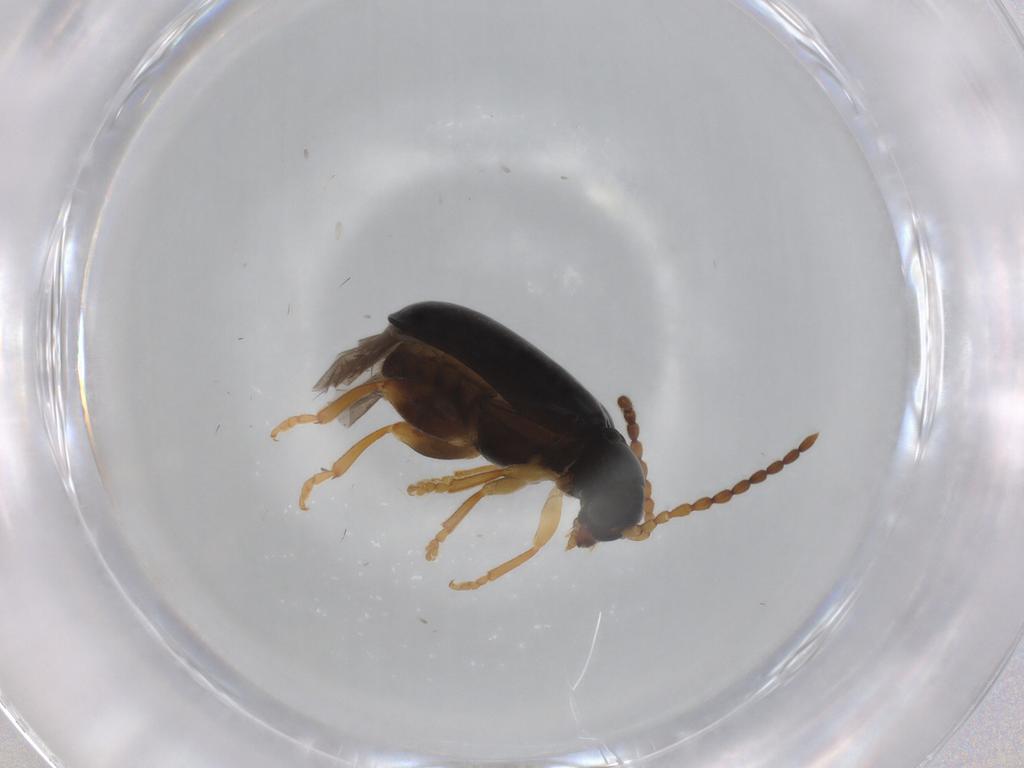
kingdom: Animalia
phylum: Arthropoda
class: Insecta
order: Coleoptera
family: Chrysomelidae
